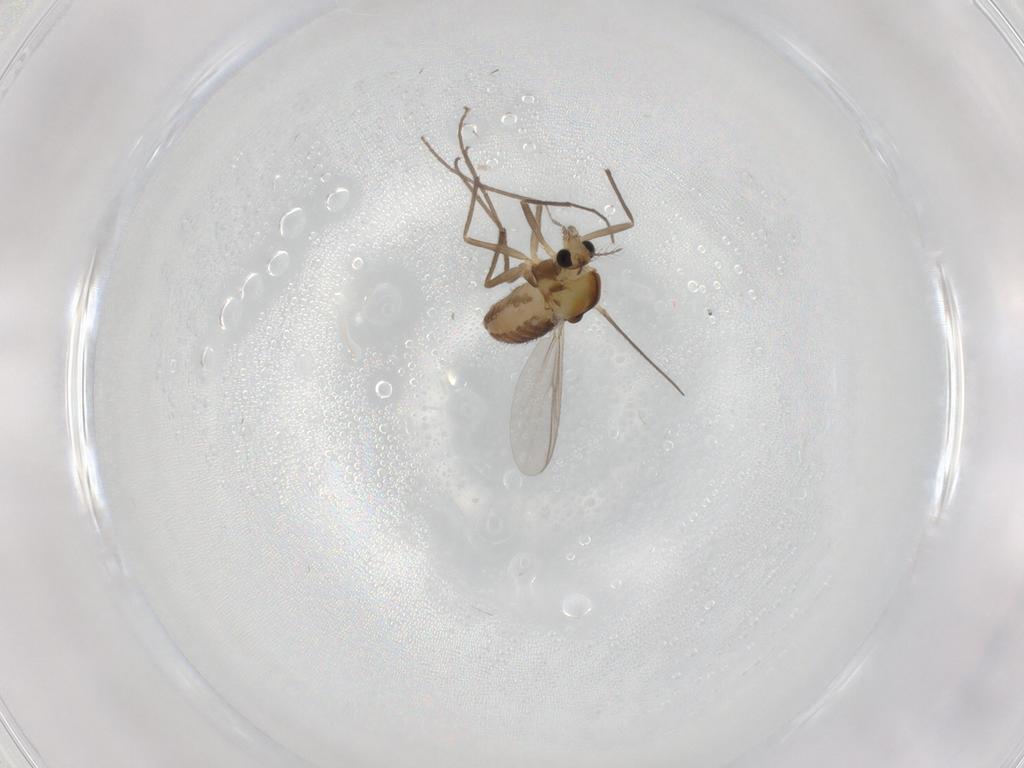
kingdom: Animalia
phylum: Arthropoda
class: Insecta
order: Diptera
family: Chironomidae
